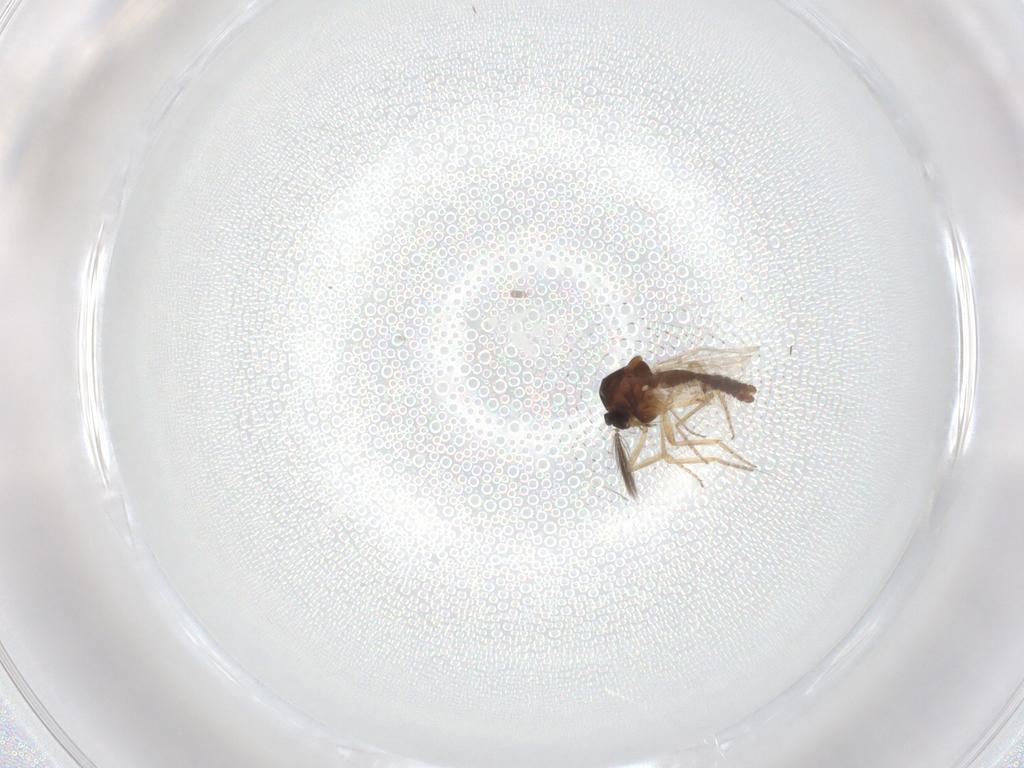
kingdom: Animalia
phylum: Arthropoda
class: Insecta
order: Diptera
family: Ceratopogonidae
